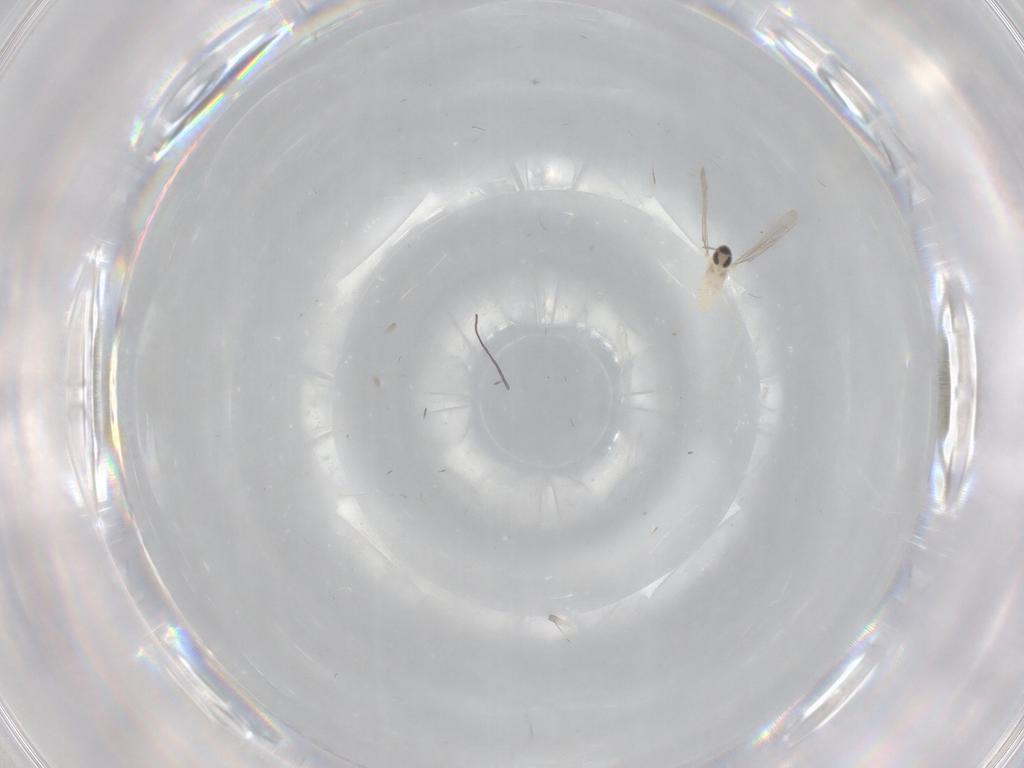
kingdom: Animalia
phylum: Arthropoda
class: Insecta
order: Diptera
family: Cecidomyiidae
